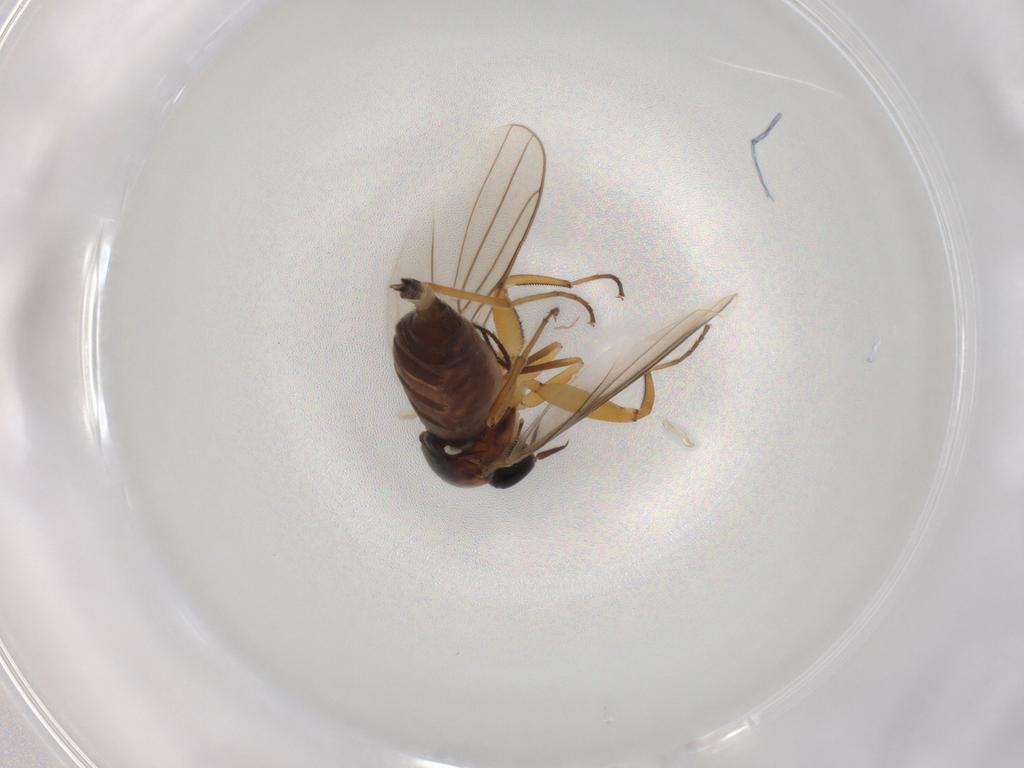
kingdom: Animalia
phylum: Arthropoda
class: Insecta
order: Diptera
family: Hybotidae
